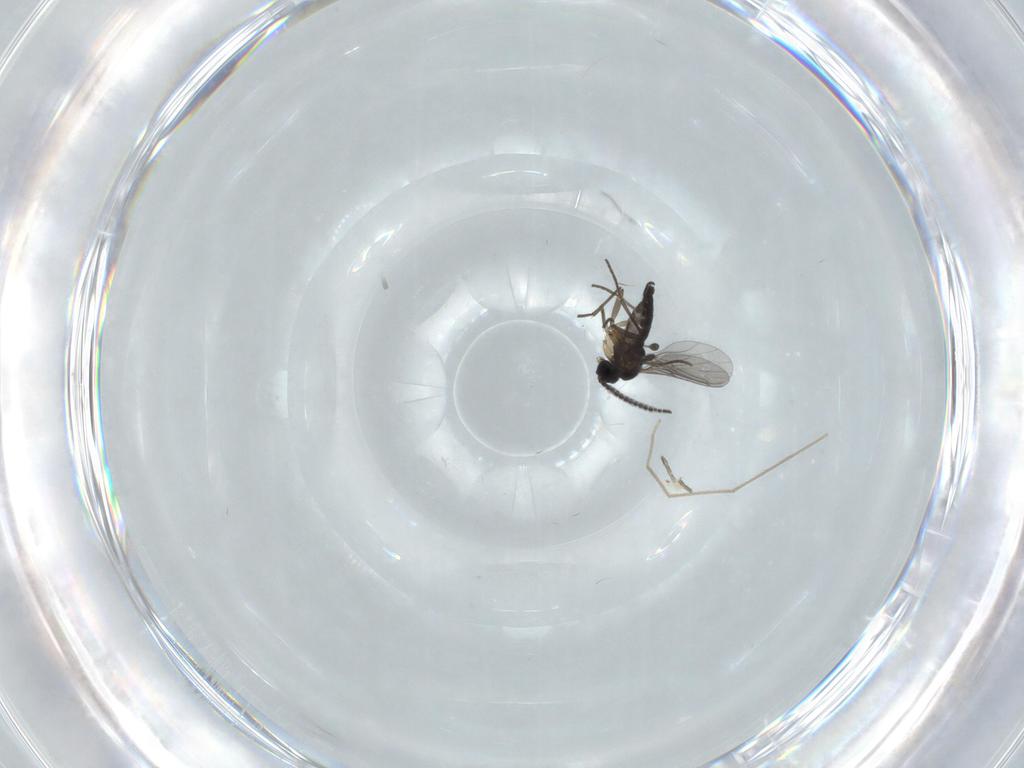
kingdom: Animalia
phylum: Arthropoda
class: Insecta
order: Diptera
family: Sciaridae
